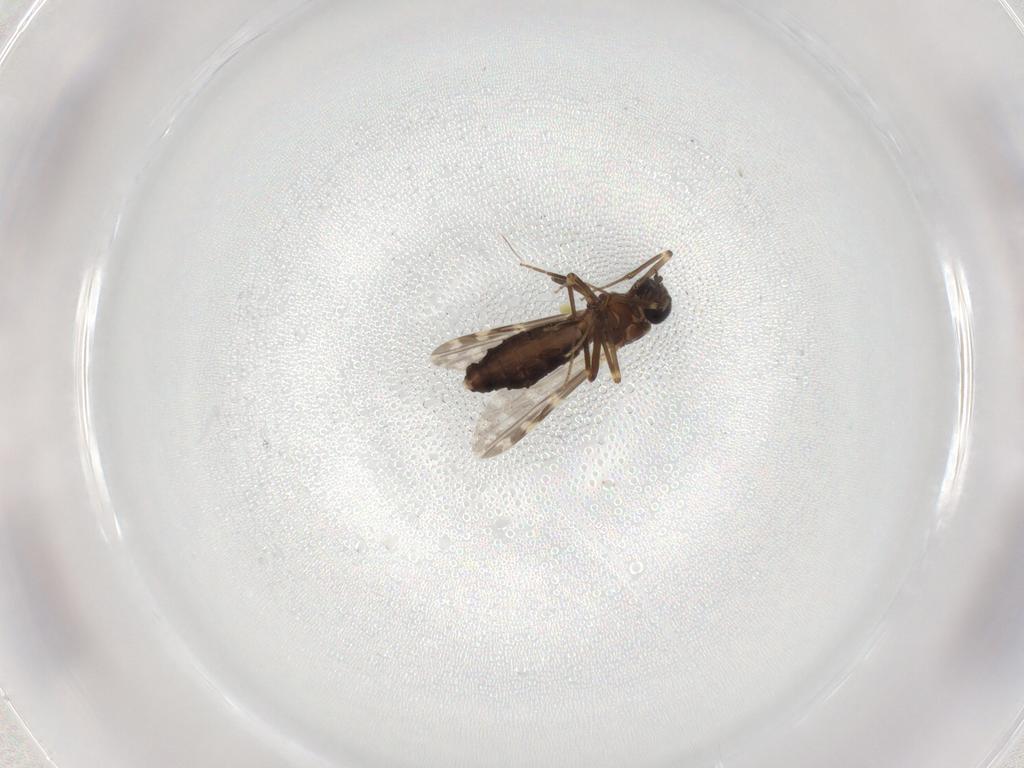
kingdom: Animalia
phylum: Arthropoda
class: Insecta
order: Diptera
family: Ceratopogonidae
